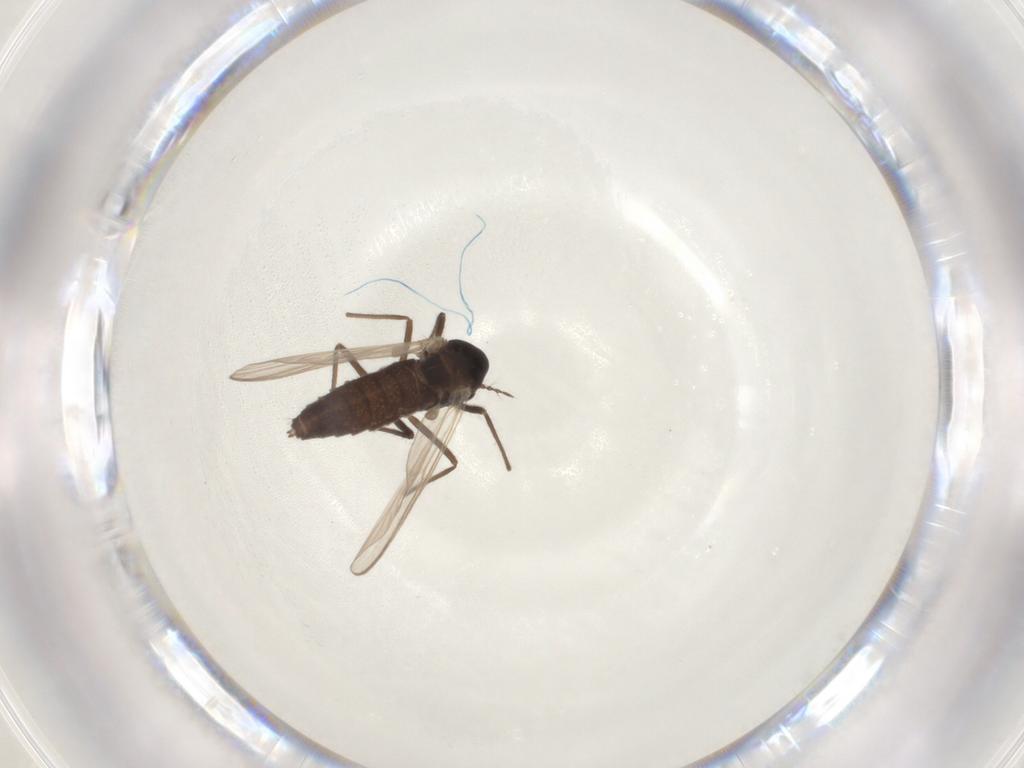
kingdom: Animalia
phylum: Arthropoda
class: Insecta
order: Diptera
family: Chironomidae
